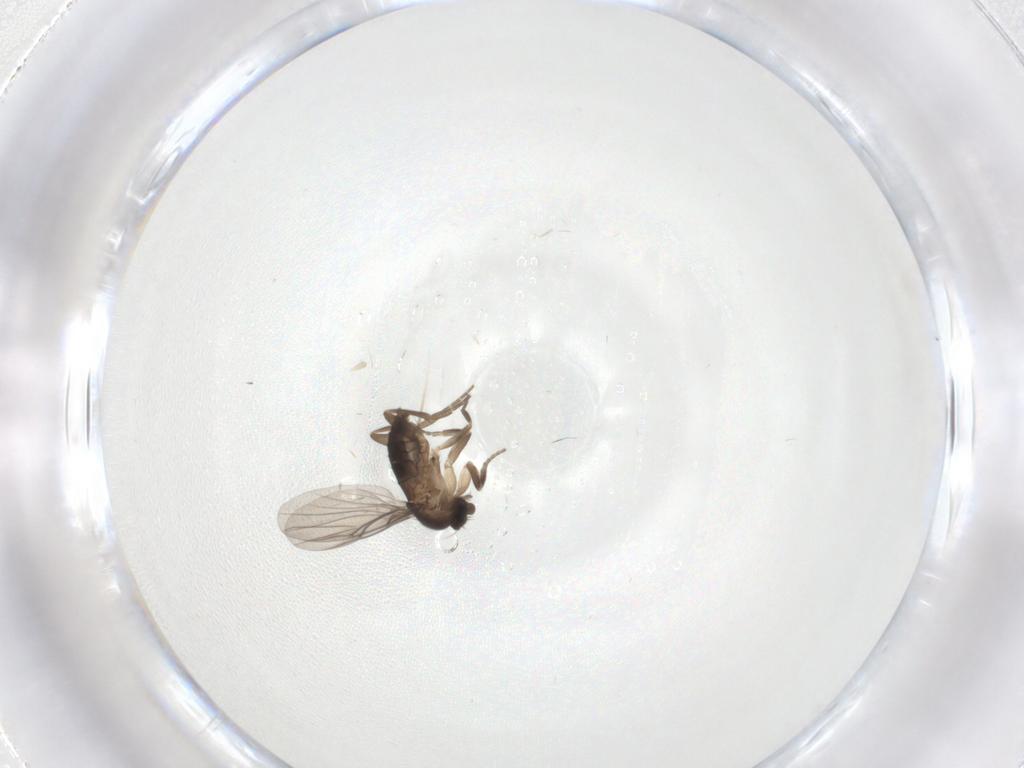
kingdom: Animalia
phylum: Arthropoda
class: Insecta
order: Diptera
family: Cecidomyiidae
